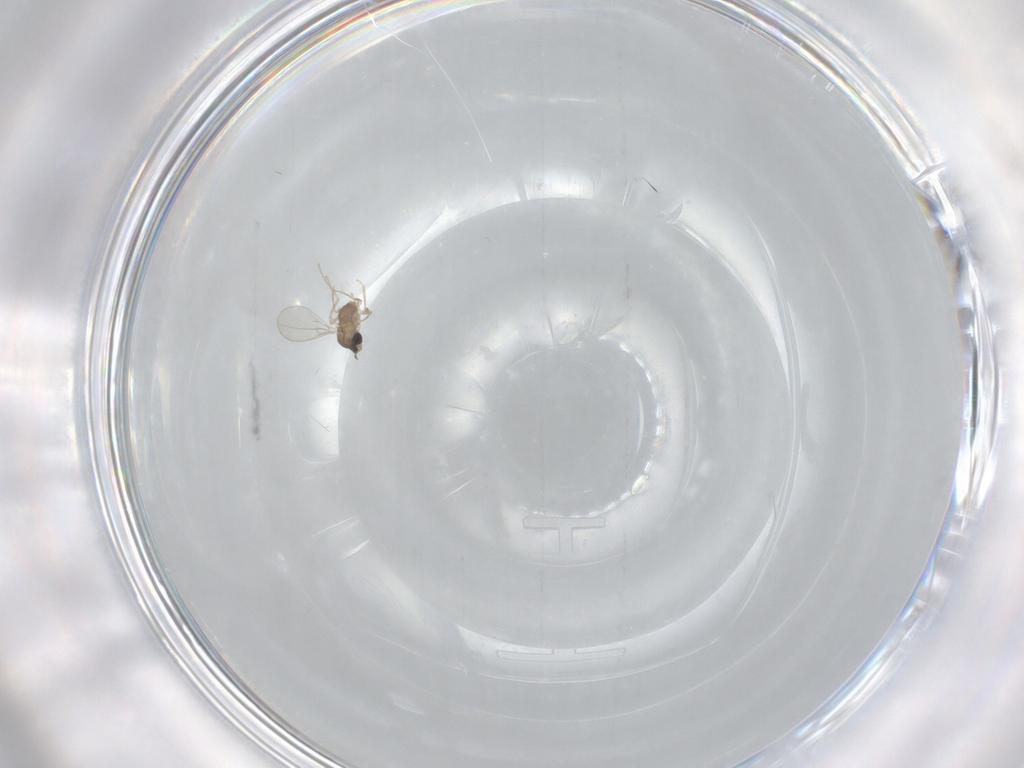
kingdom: Animalia
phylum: Arthropoda
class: Insecta
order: Diptera
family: Cecidomyiidae
